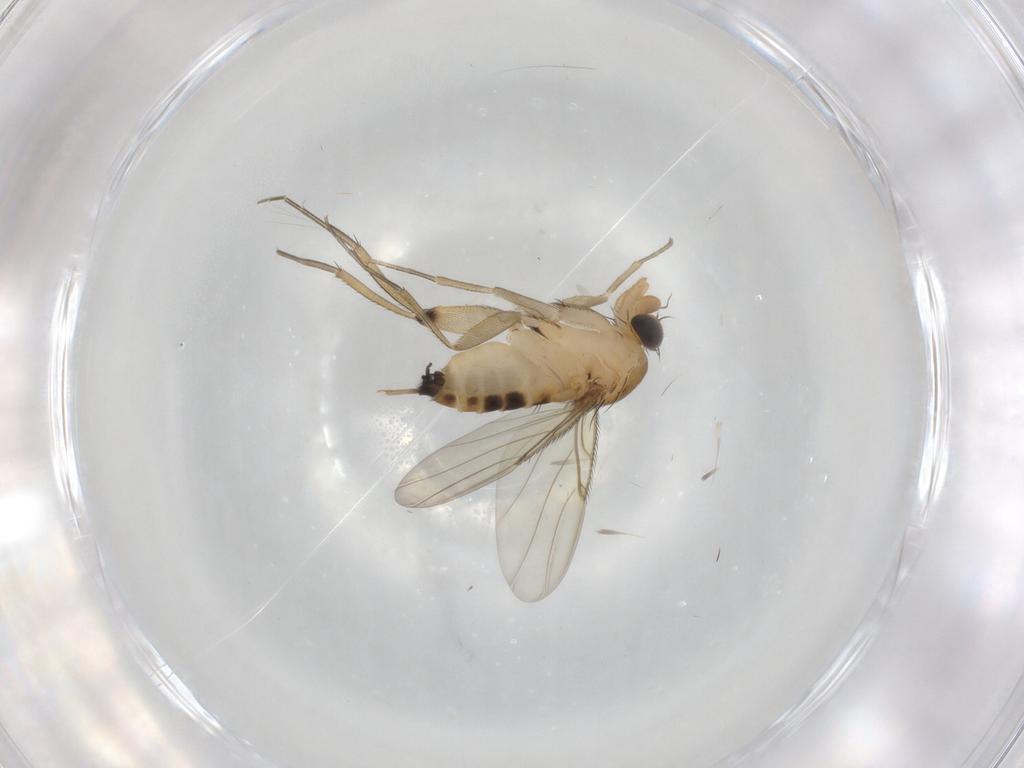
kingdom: Animalia
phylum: Arthropoda
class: Insecta
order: Diptera
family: Phoridae
